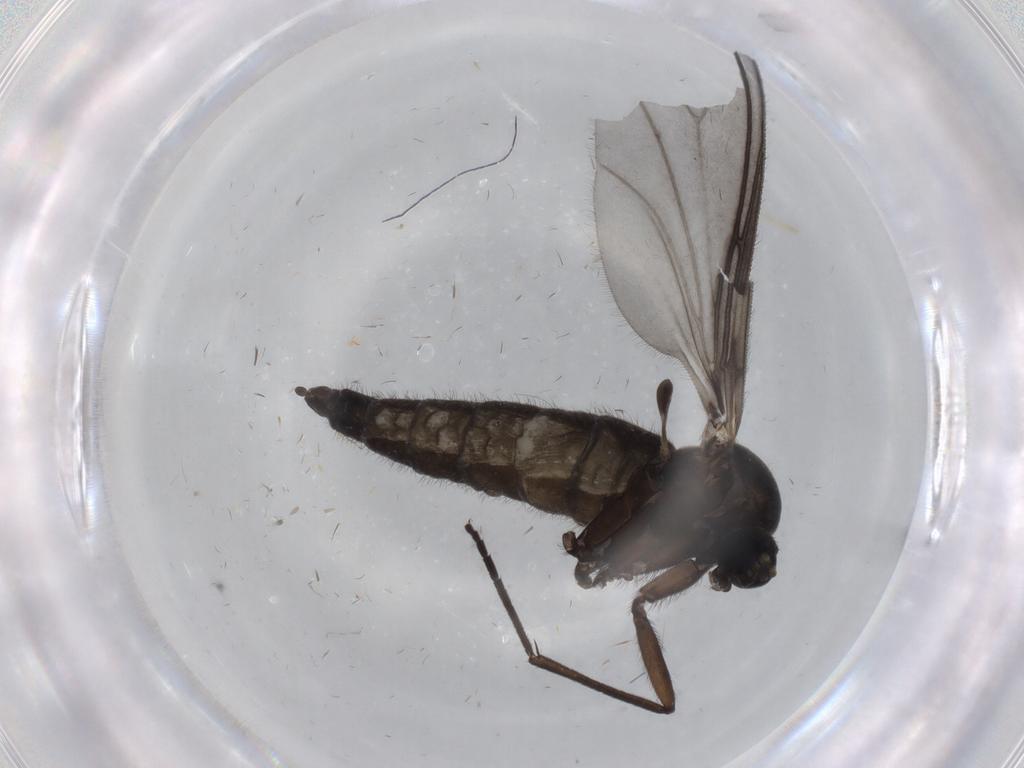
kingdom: Animalia
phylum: Arthropoda
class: Insecta
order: Diptera
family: Sciaridae
